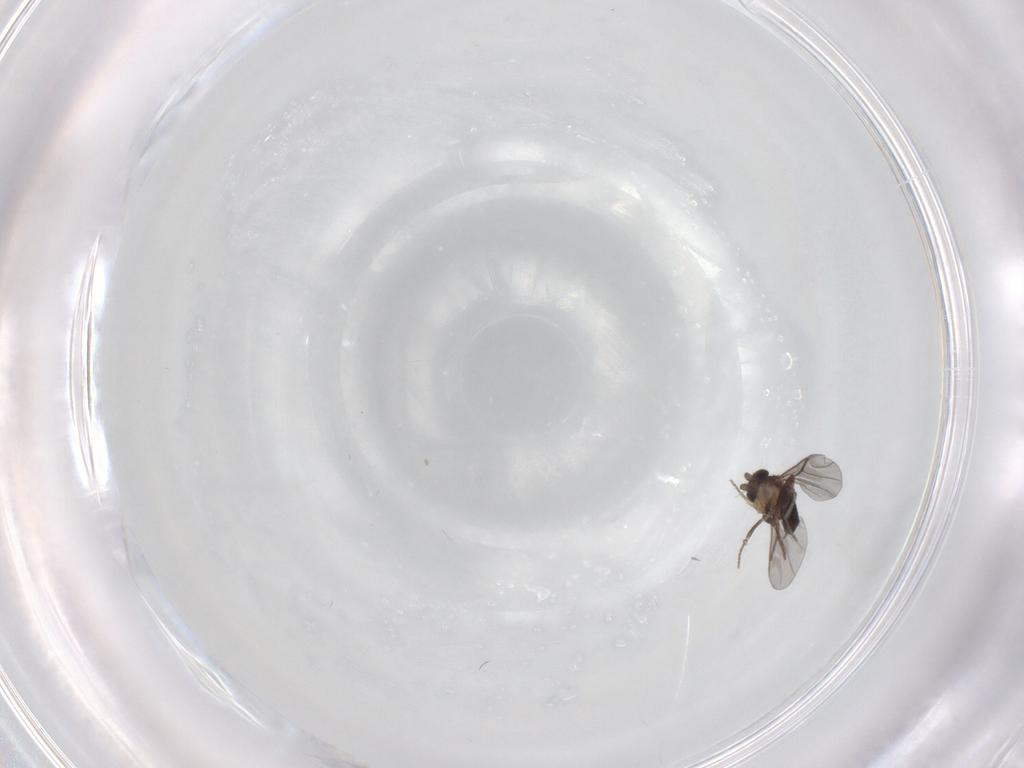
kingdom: Animalia
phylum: Arthropoda
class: Insecta
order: Diptera
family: Cecidomyiidae
